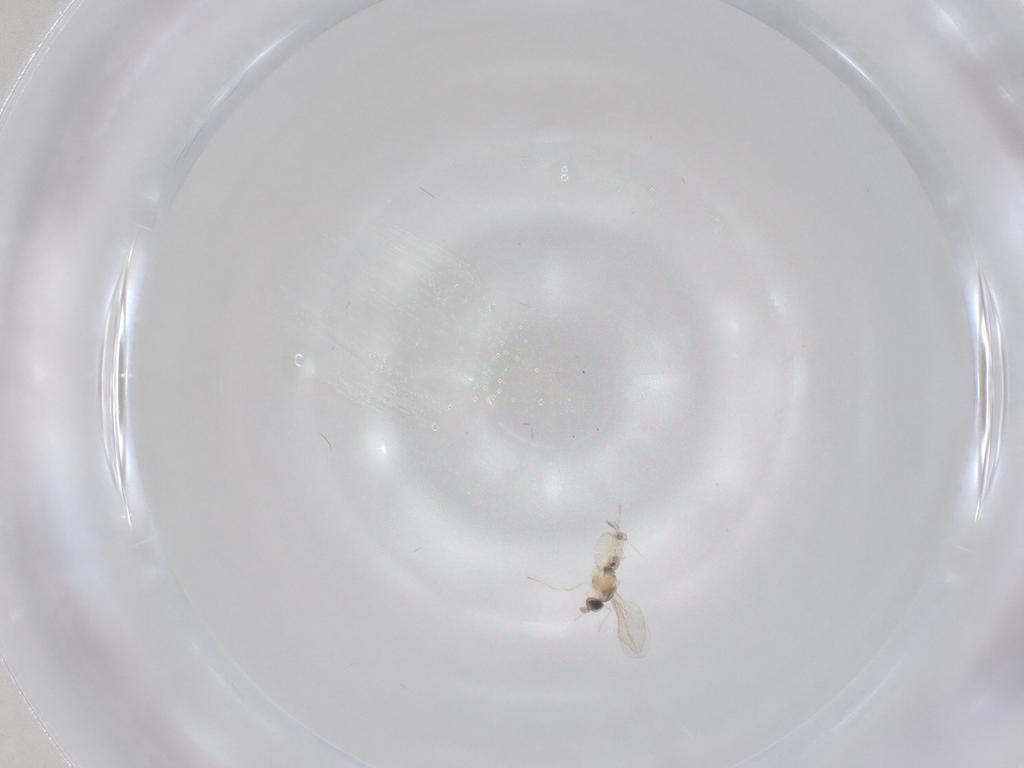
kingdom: Animalia
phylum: Arthropoda
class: Insecta
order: Diptera
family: Cecidomyiidae
